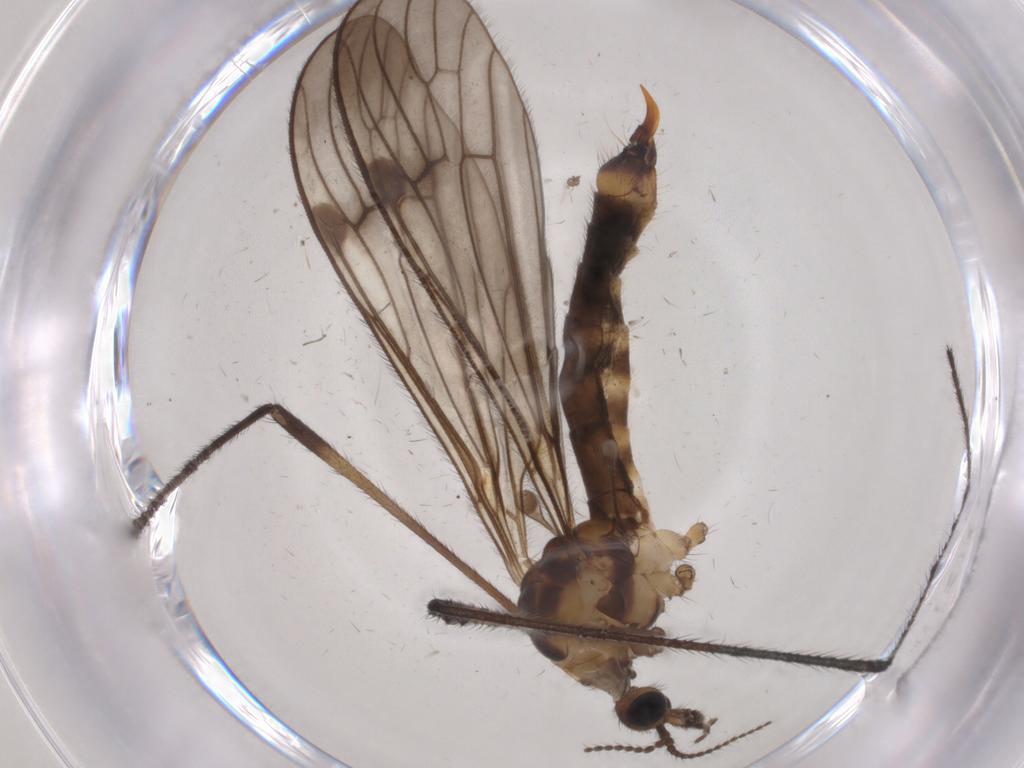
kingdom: Animalia
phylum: Arthropoda
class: Insecta
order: Diptera
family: Limoniidae
